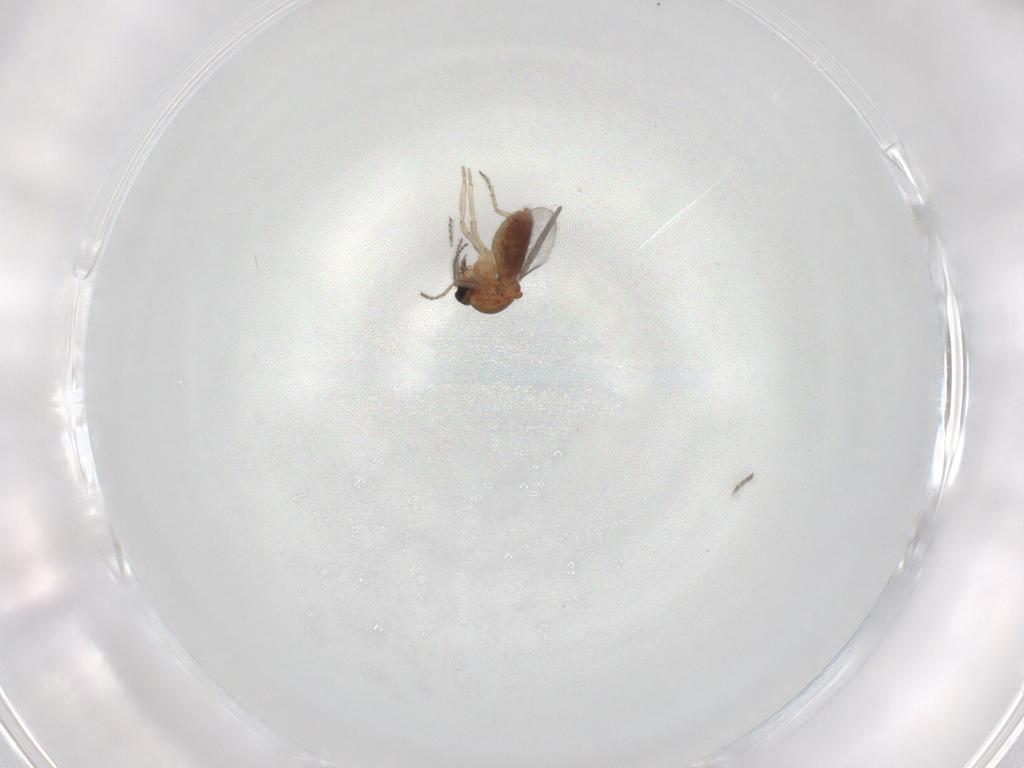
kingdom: Animalia
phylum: Arthropoda
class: Insecta
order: Diptera
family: Ceratopogonidae
